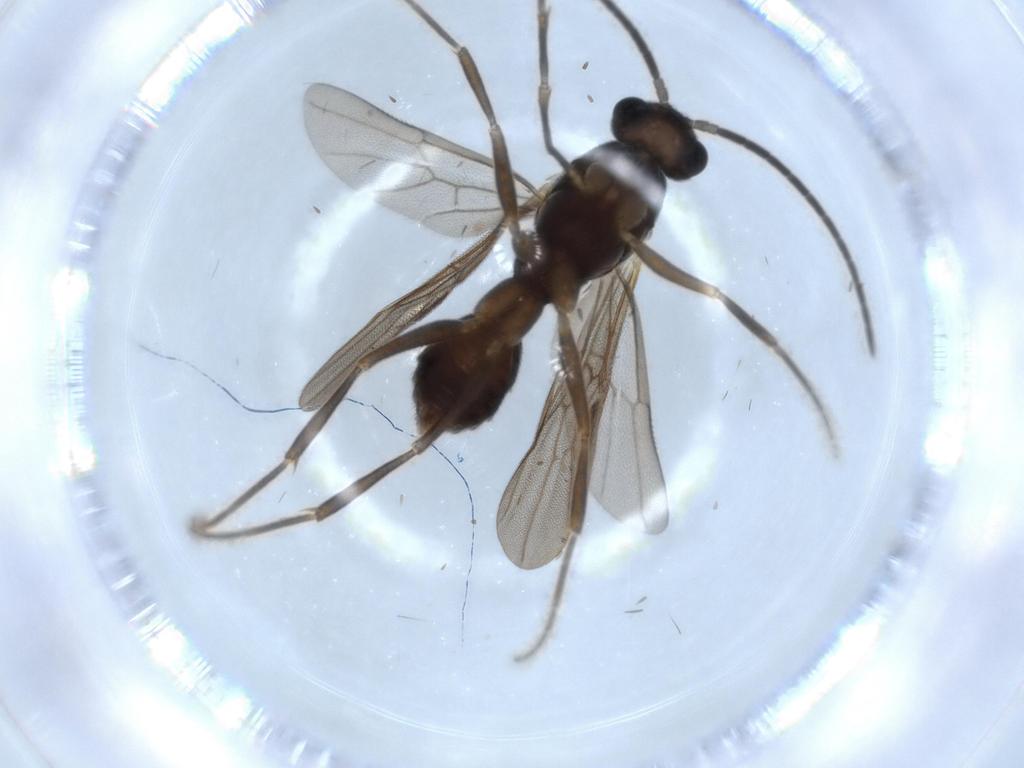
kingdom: Animalia
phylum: Arthropoda
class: Insecta
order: Hymenoptera
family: Formicidae
